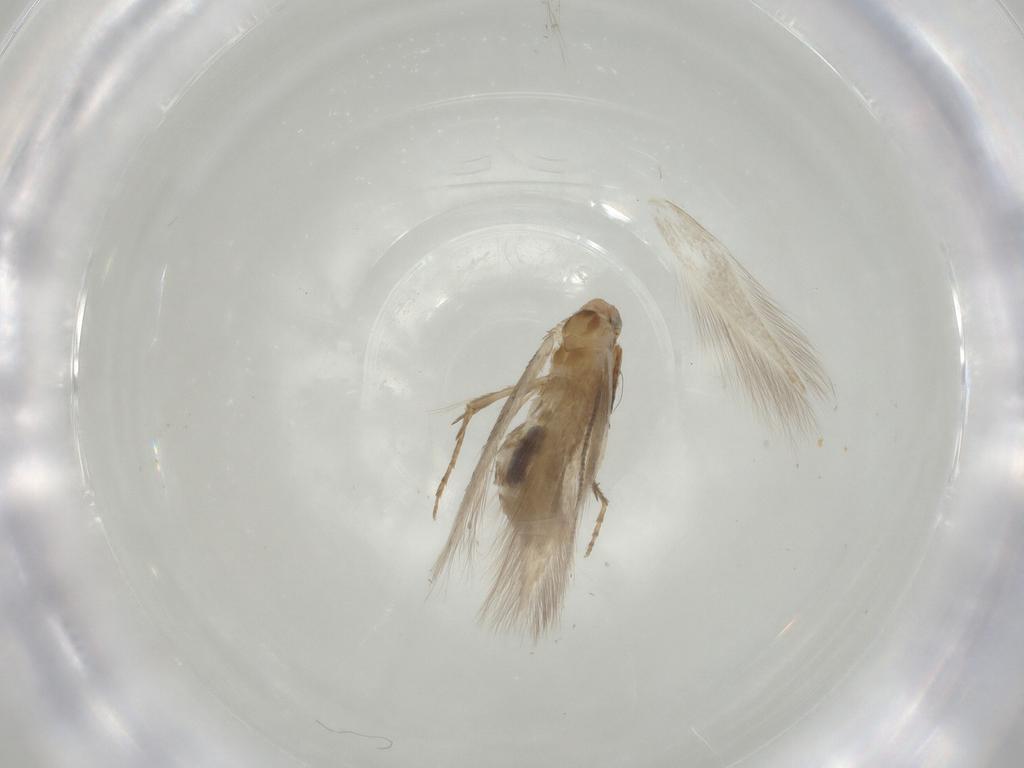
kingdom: Animalia
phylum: Arthropoda
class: Insecta
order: Lepidoptera
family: Bucculatricidae
